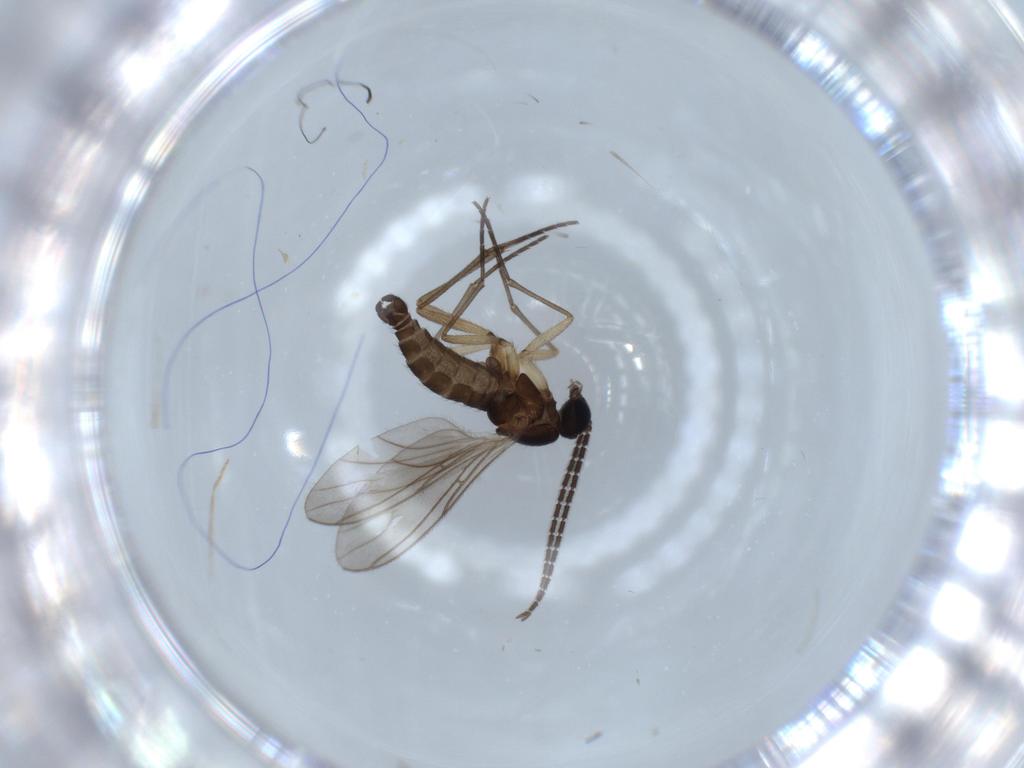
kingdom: Animalia
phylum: Arthropoda
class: Insecta
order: Diptera
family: Sciaridae
